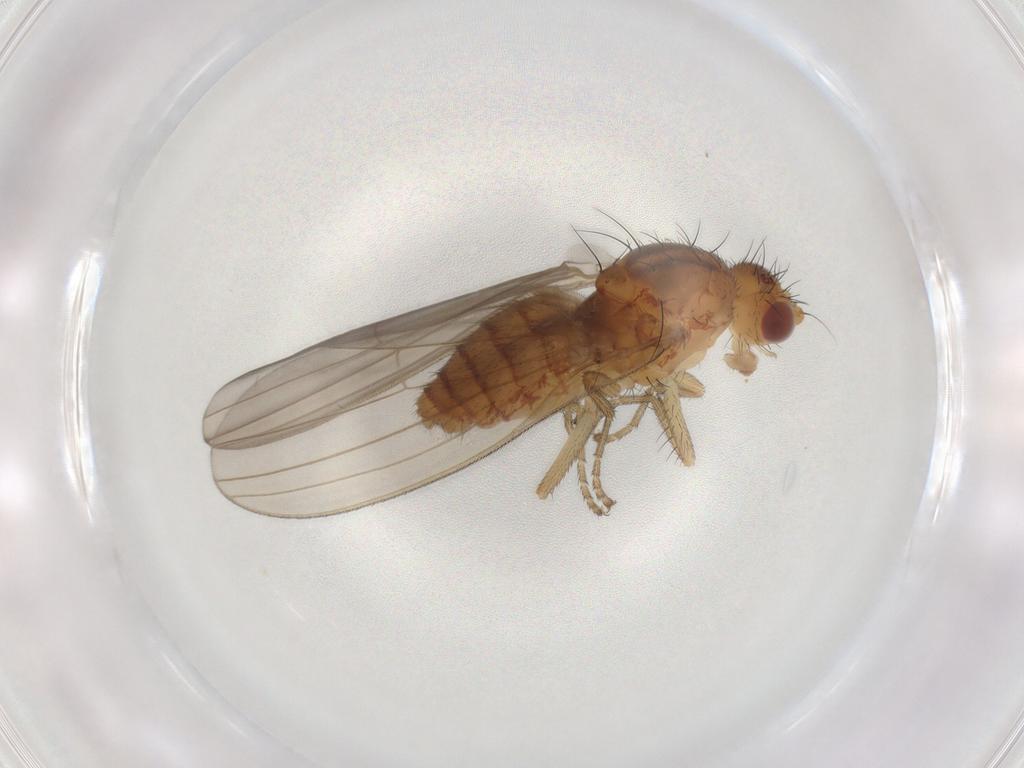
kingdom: Animalia
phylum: Arthropoda
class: Insecta
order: Diptera
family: Natalimyzidae
